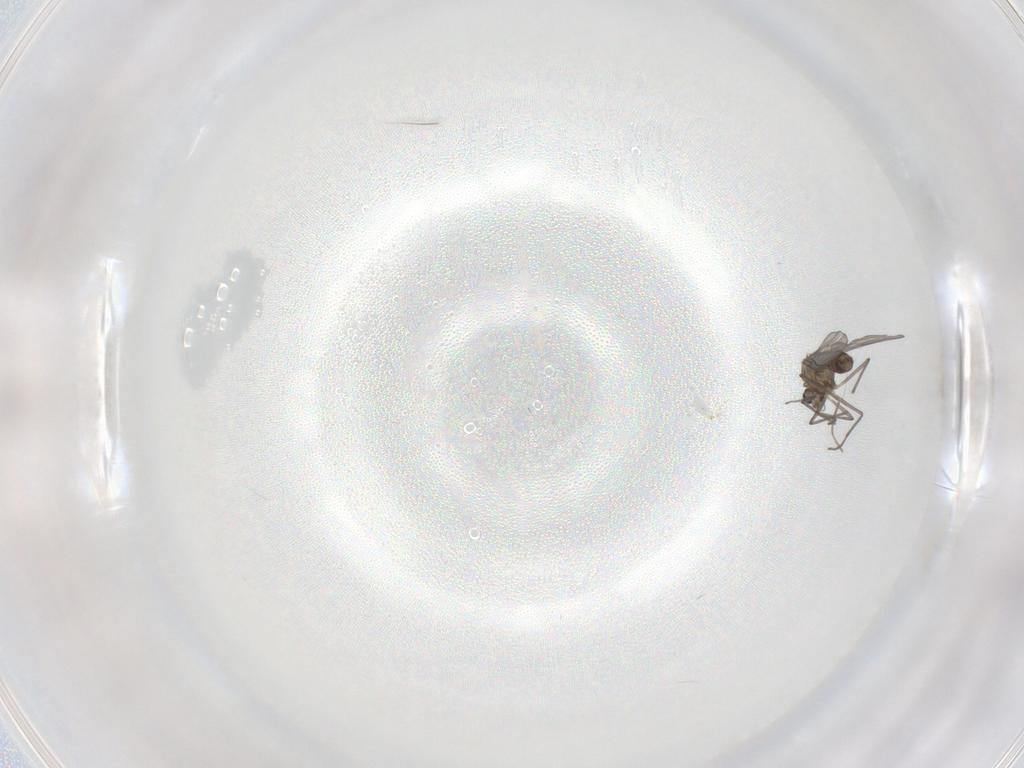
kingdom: Animalia
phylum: Arthropoda
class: Insecta
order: Diptera
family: Chironomidae
